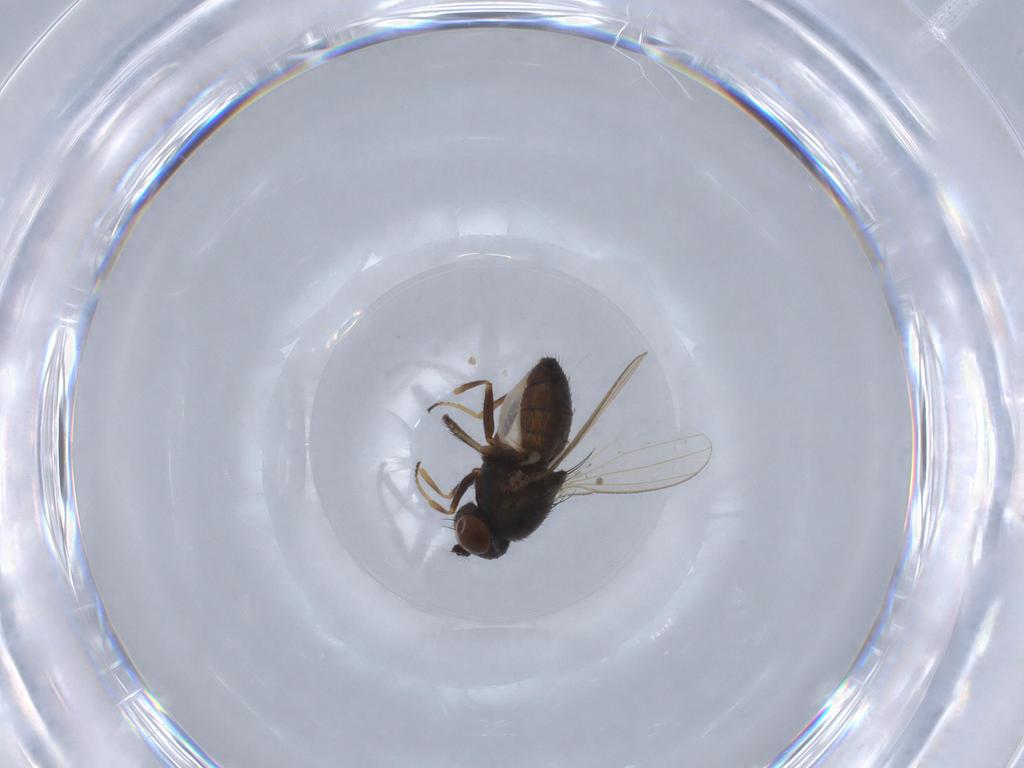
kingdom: Animalia
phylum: Arthropoda
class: Insecta
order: Diptera
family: Ephydridae
